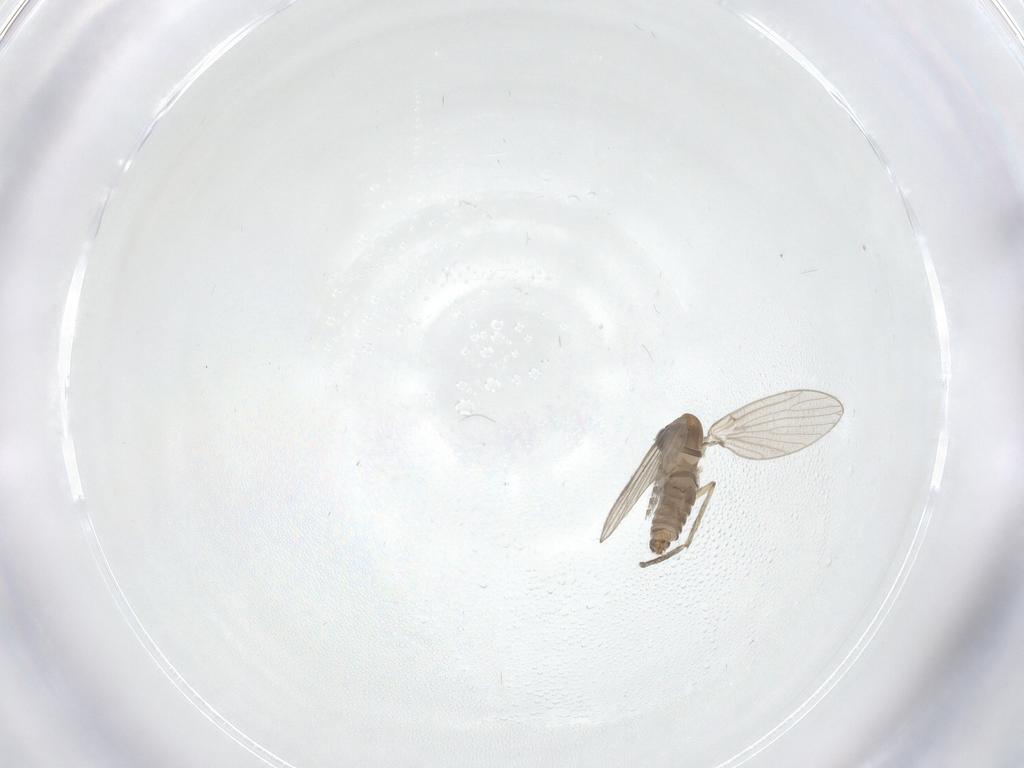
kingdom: Animalia
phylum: Arthropoda
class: Insecta
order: Diptera
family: Psychodidae
